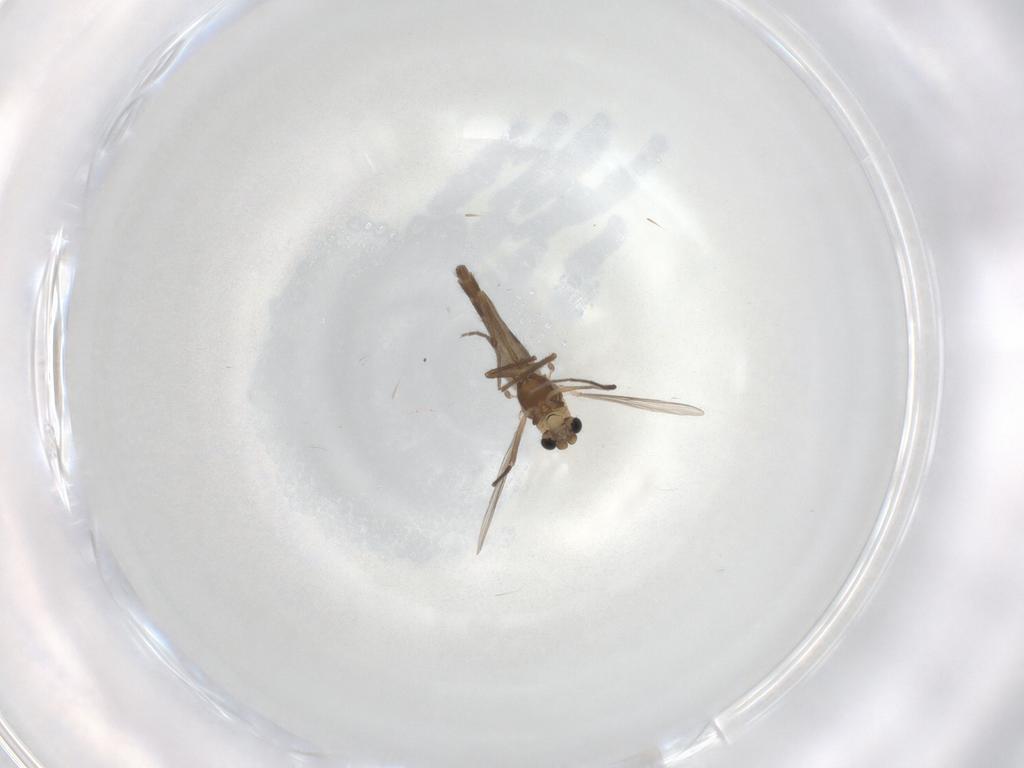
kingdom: Animalia
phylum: Arthropoda
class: Insecta
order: Diptera
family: Chironomidae
